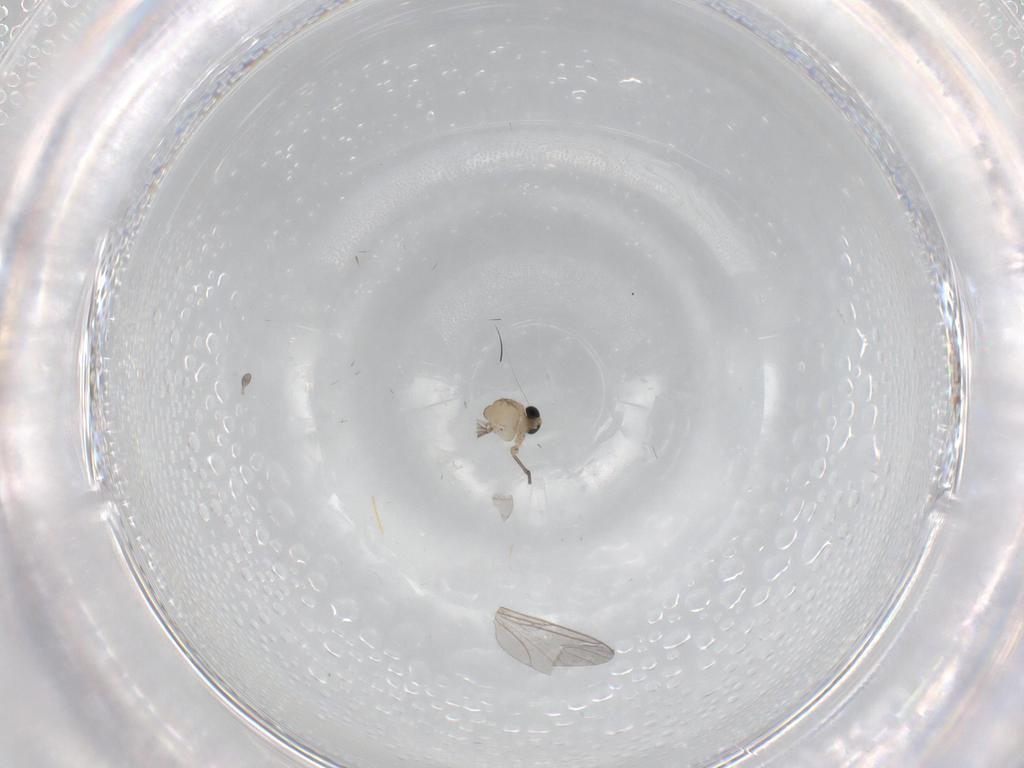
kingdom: Animalia
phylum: Arthropoda
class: Insecta
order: Diptera
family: Sciaridae
